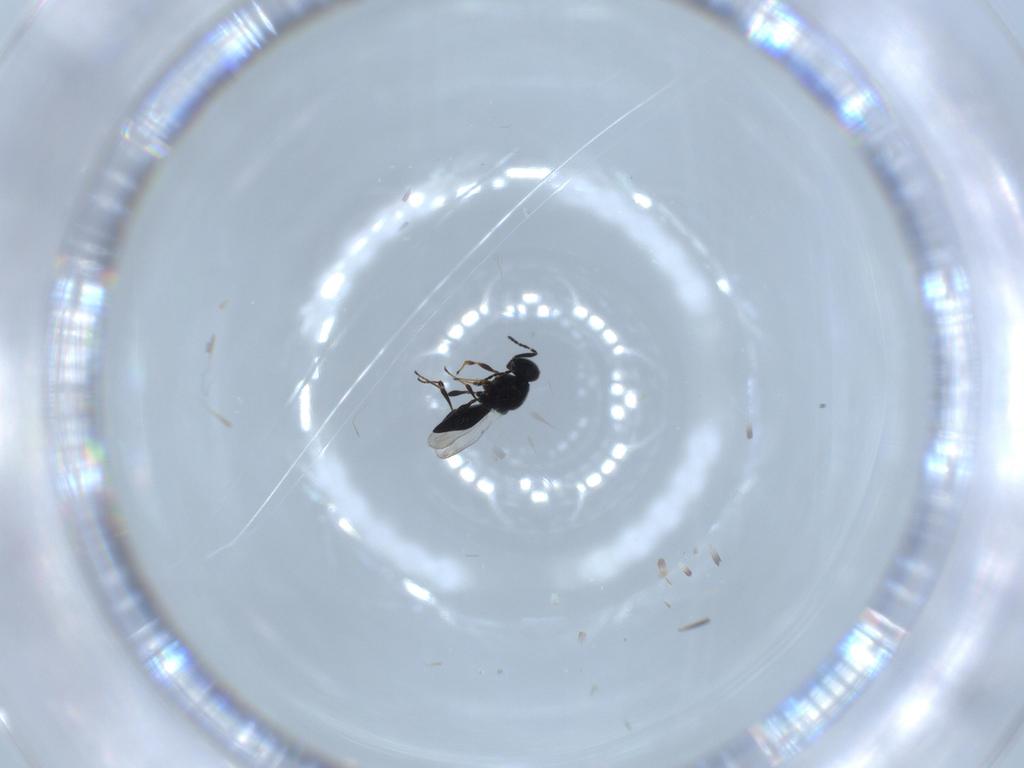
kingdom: Animalia
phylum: Arthropoda
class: Insecta
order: Diptera
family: Mythicomyiidae
